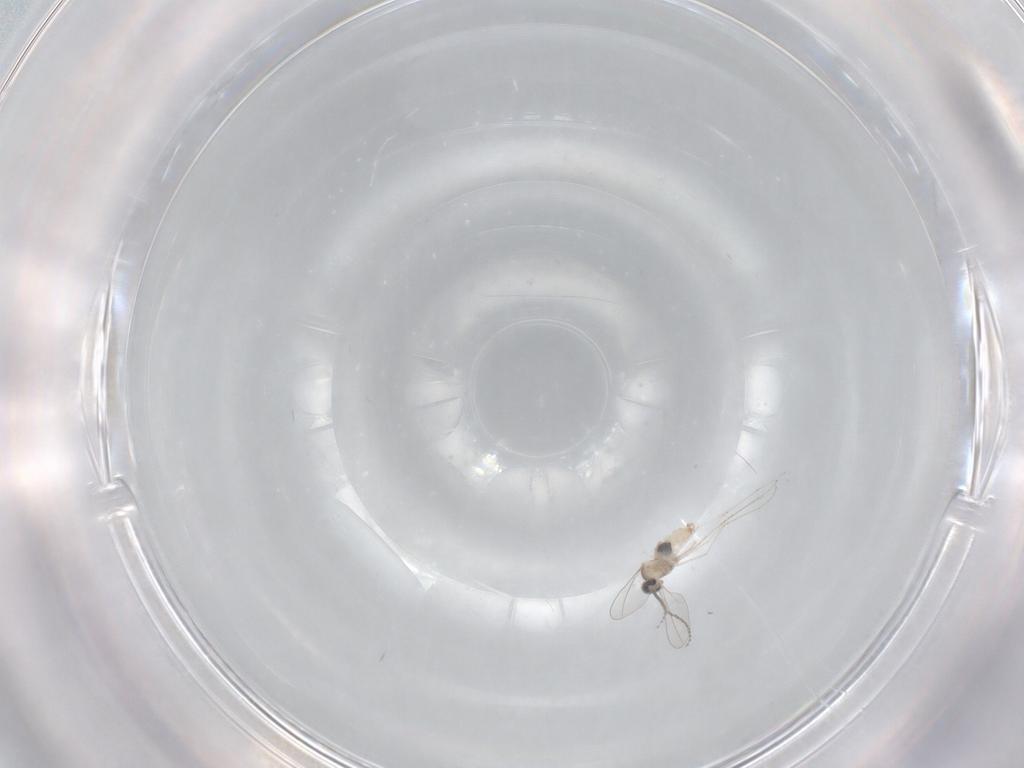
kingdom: Animalia
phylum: Arthropoda
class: Insecta
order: Diptera
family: Cecidomyiidae
